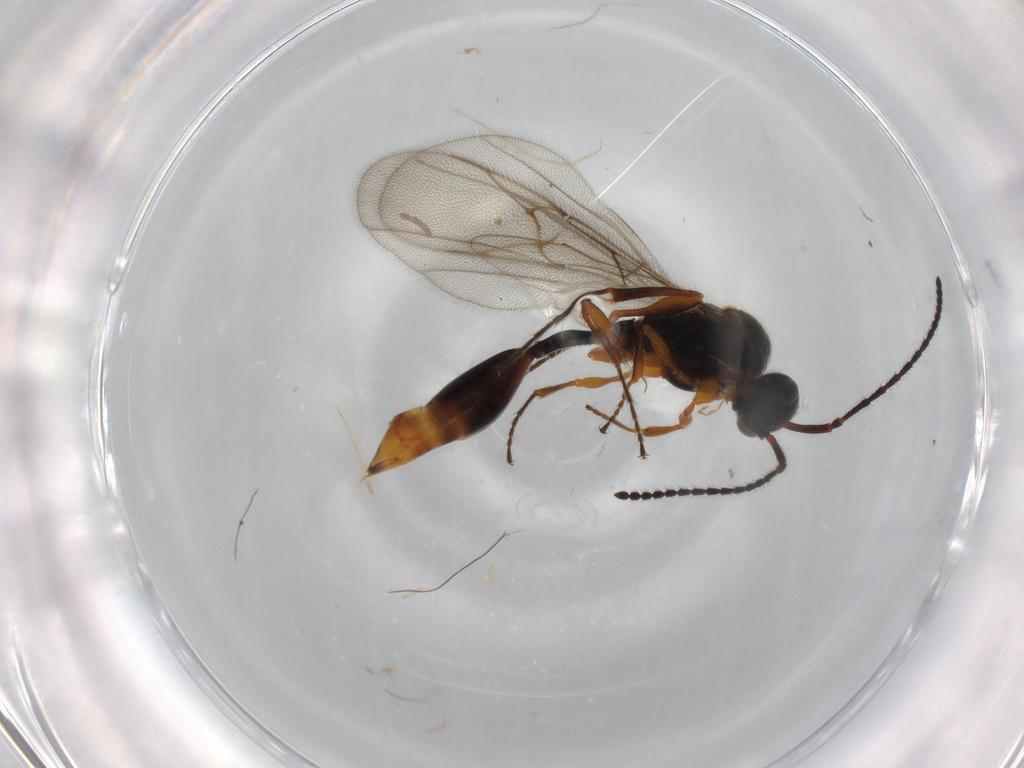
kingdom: Animalia
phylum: Arthropoda
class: Insecta
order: Hymenoptera
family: Diapriidae
